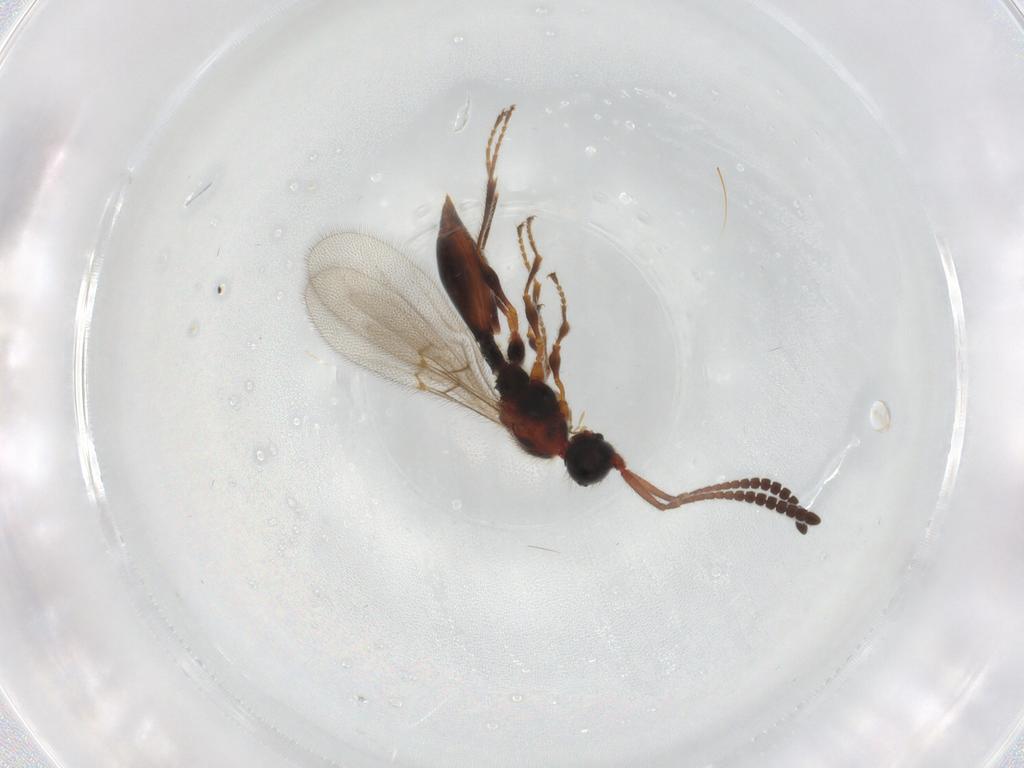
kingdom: Animalia
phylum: Arthropoda
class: Insecta
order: Hymenoptera
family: Diapriidae
